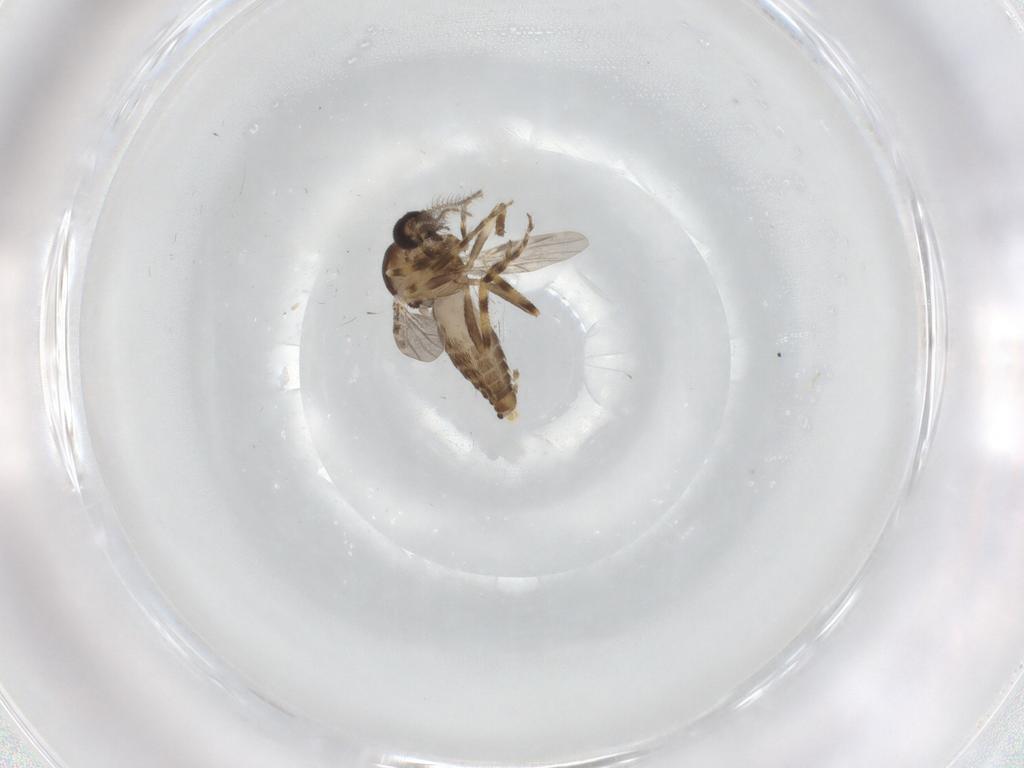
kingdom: Animalia
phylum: Arthropoda
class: Insecta
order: Diptera
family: Ceratopogonidae
